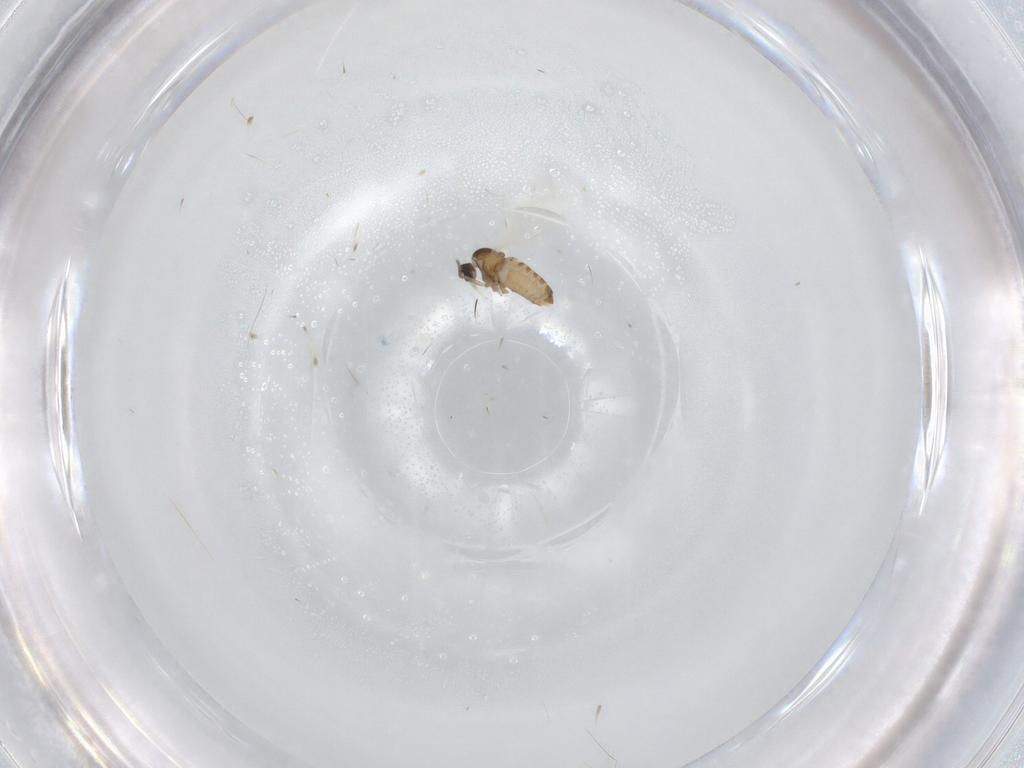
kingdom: Animalia
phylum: Arthropoda
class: Insecta
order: Diptera
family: Cecidomyiidae
